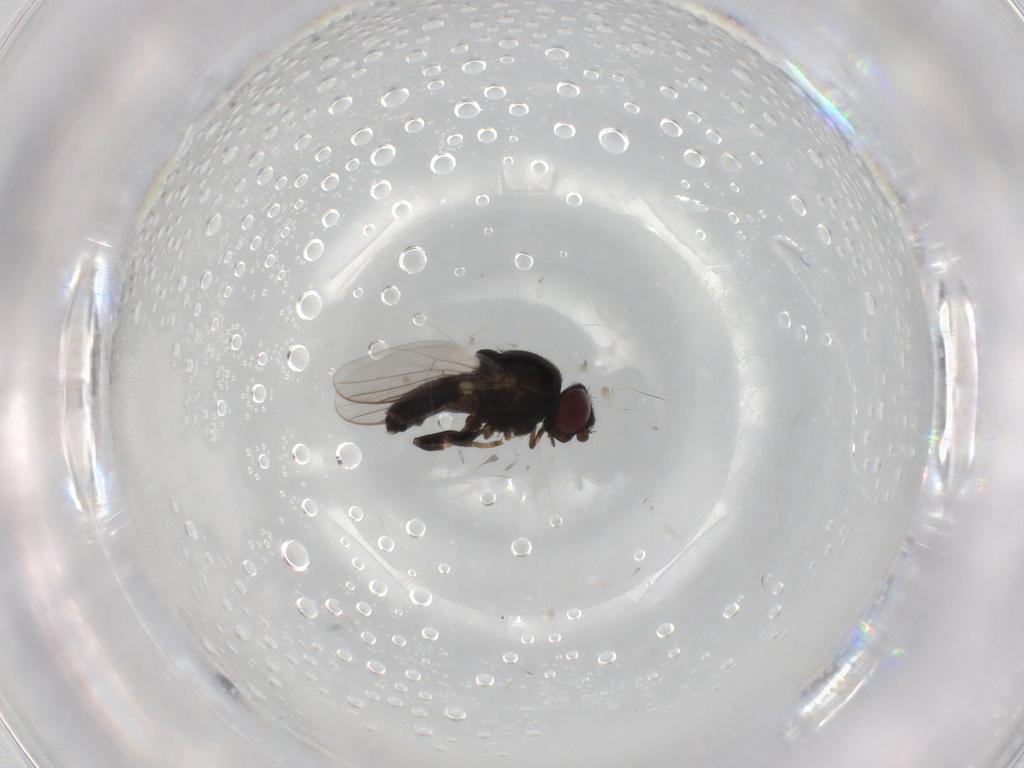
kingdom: Animalia
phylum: Arthropoda
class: Insecta
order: Diptera
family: Chloropidae
